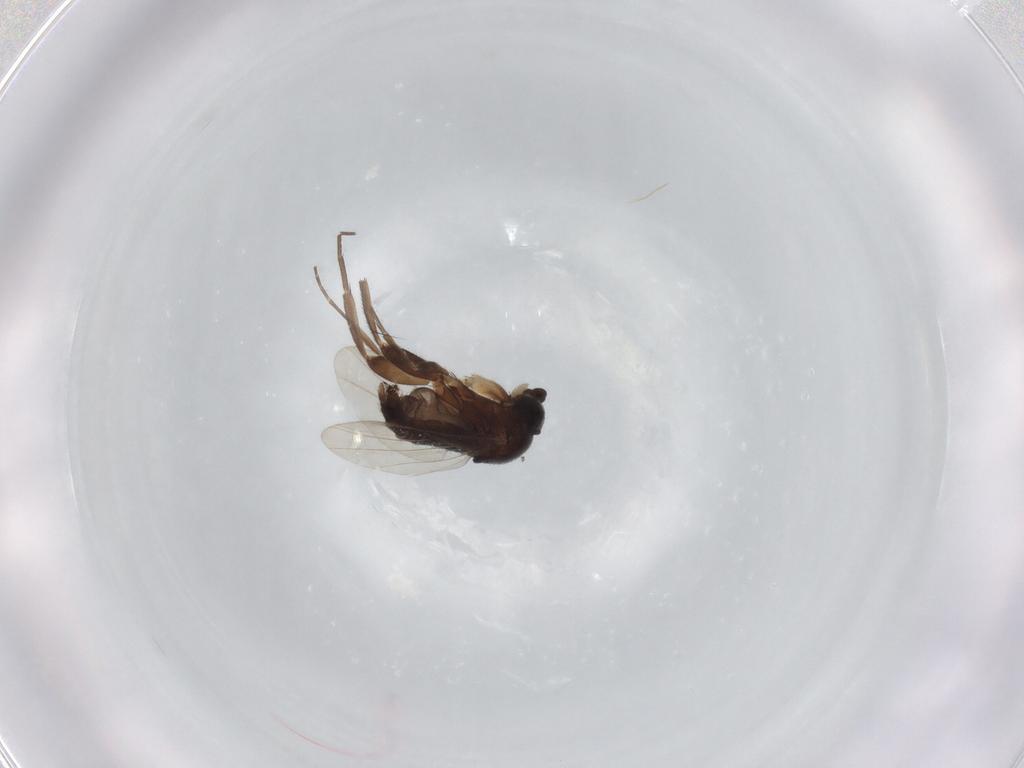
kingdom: Animalia
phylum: Arthropoda
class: Insecta
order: Diptera
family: Phoridae
